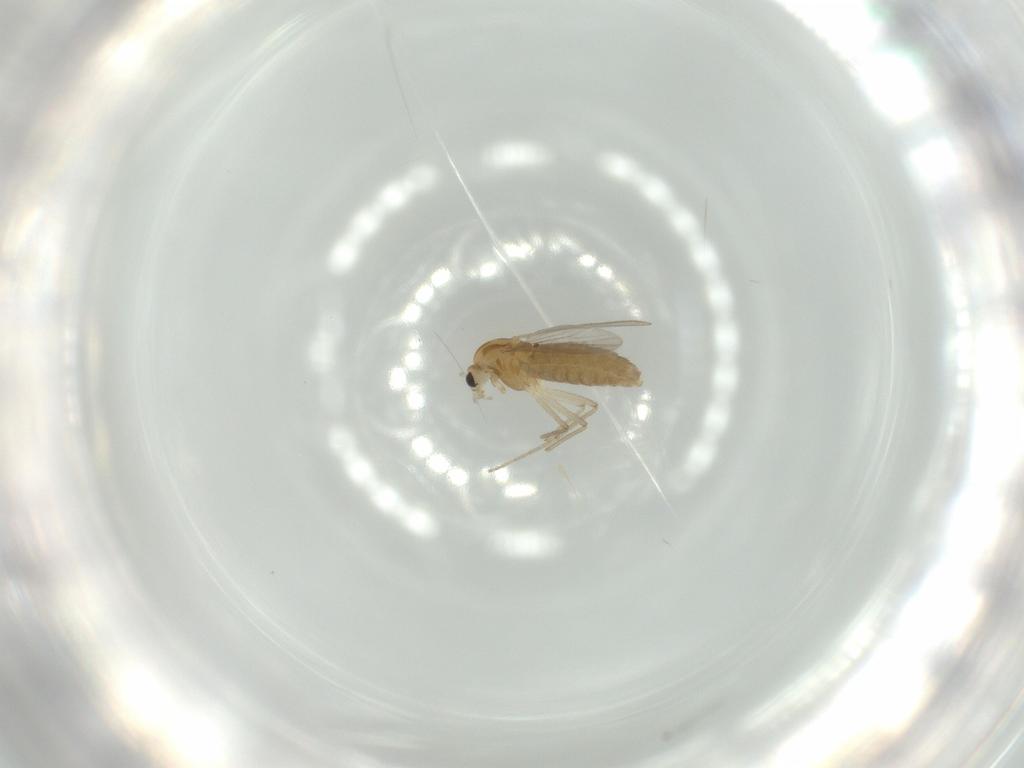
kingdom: Animalia
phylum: Arthropoda
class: Insecta
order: Diptera
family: Chironomidae
